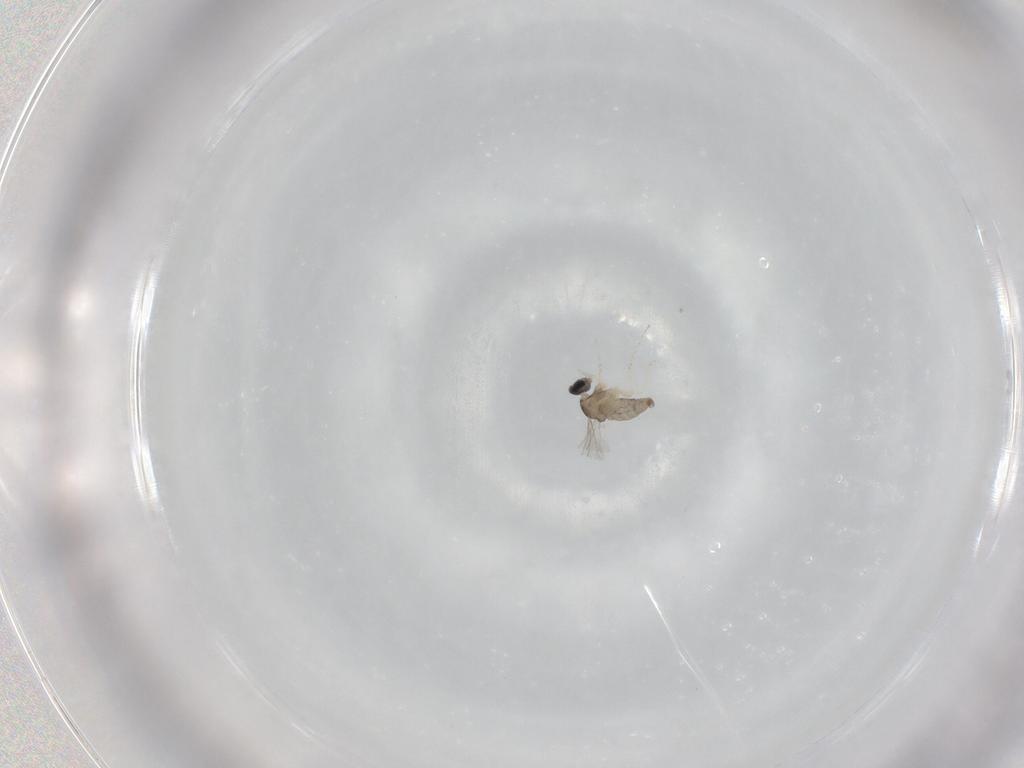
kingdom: Animalia
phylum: Arthropoda
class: Insecta
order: Diptera
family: Cecidomyiidae
